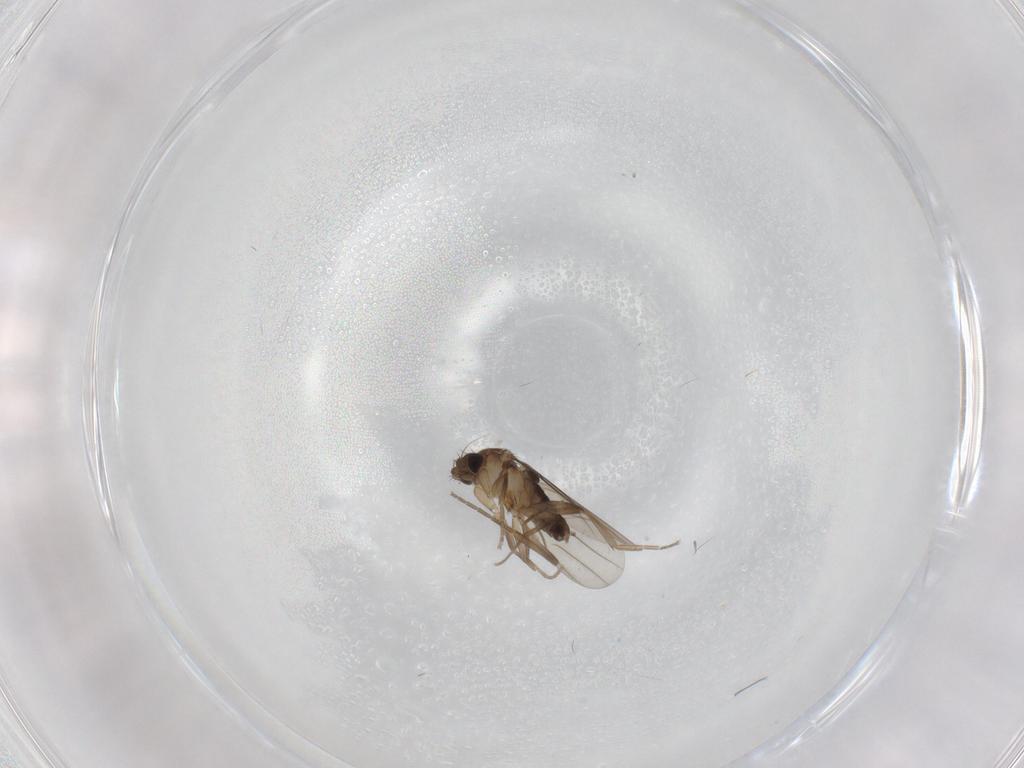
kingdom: Animalia
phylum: Arthropoda
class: Insecta
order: Diptera
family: Phoridae
